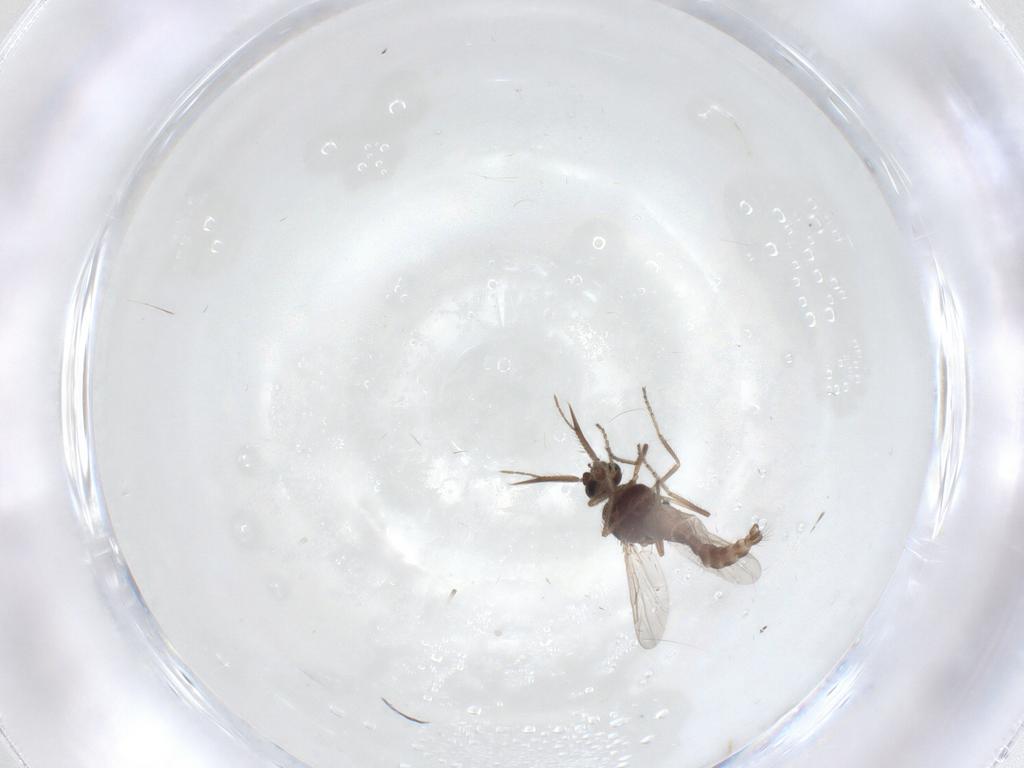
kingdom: Animalia
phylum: Arthropoda
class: Insecta
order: Diptera
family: Ceratopogonidae
